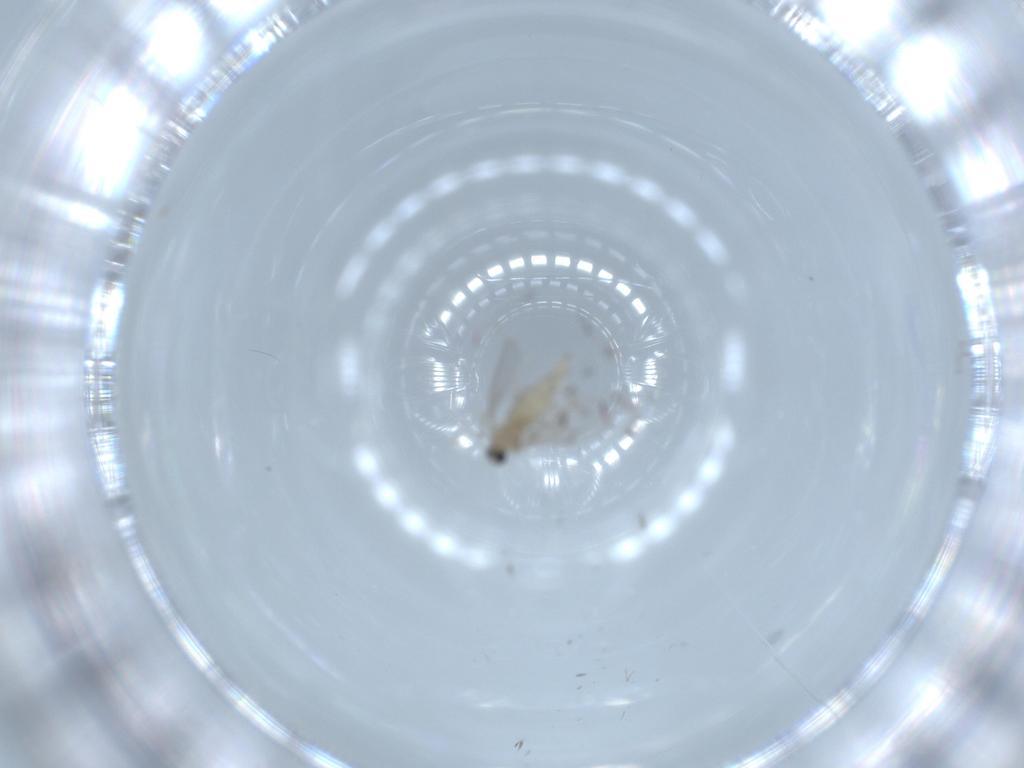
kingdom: Animalia
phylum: Arthropoda
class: Insecta
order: Diptera
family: Cecidomyiidae
